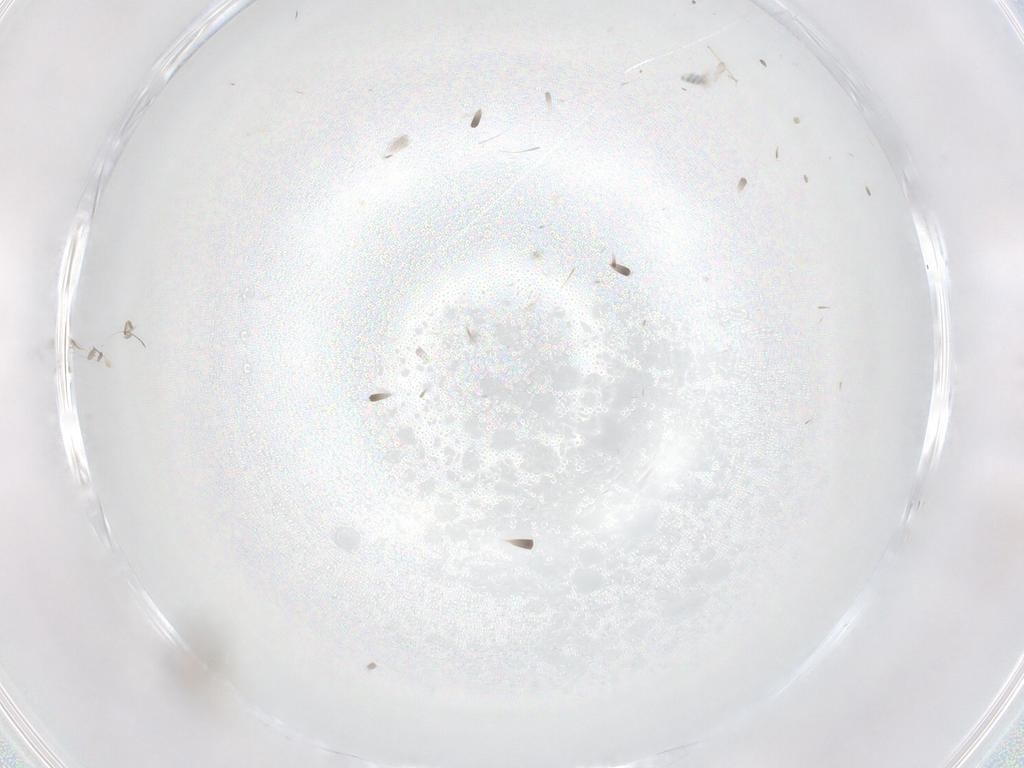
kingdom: Animalia
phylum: Arthropoda
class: Insecta
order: Diptera
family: Cecidomyiidae
